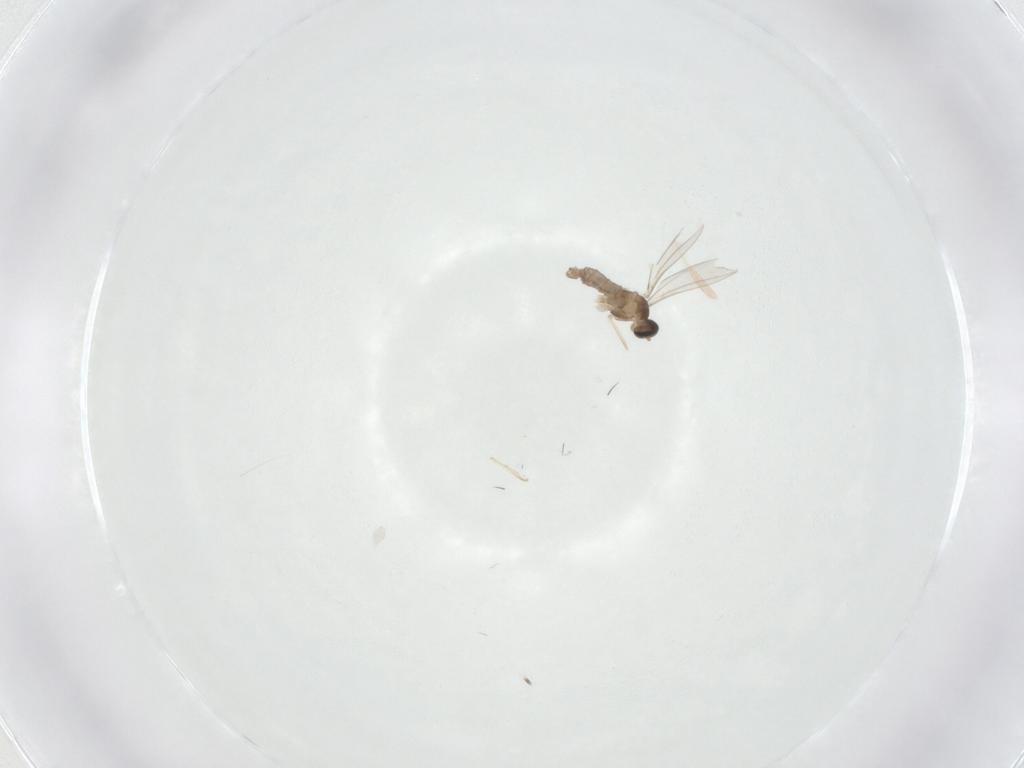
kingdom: Animalia
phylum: Arthropoda
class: Insecta
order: Diptera
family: Cecidomyiidae
